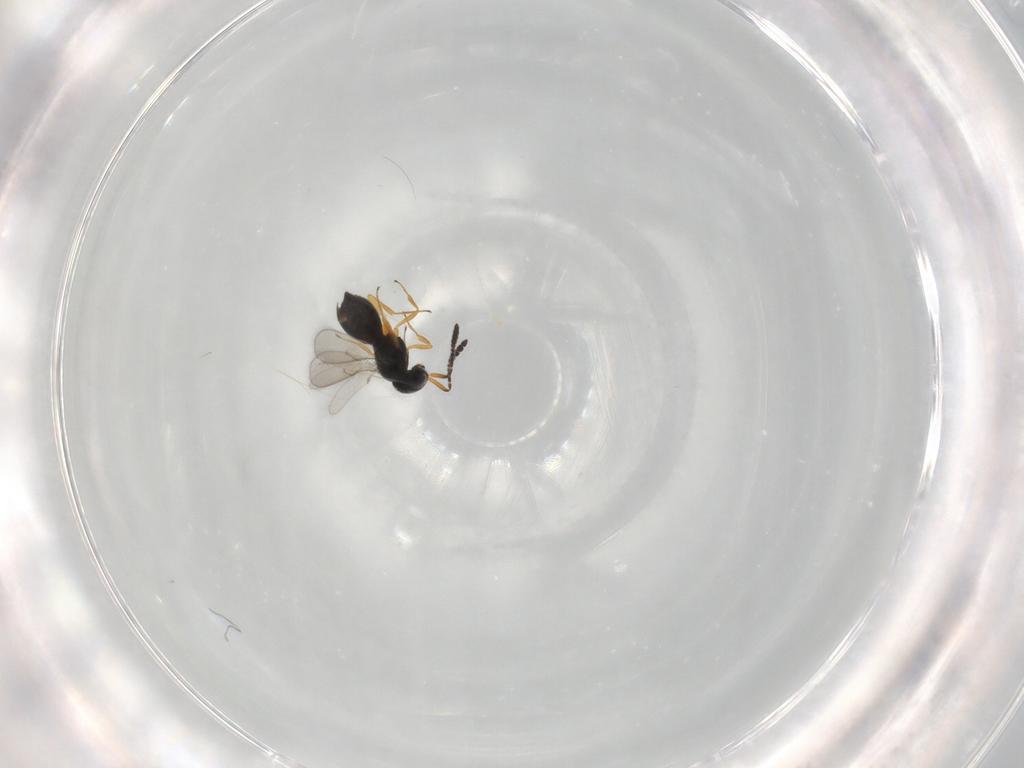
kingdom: Animalia
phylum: Arthropoda
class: Insecta
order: Hymenoptera
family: Scelionidae
